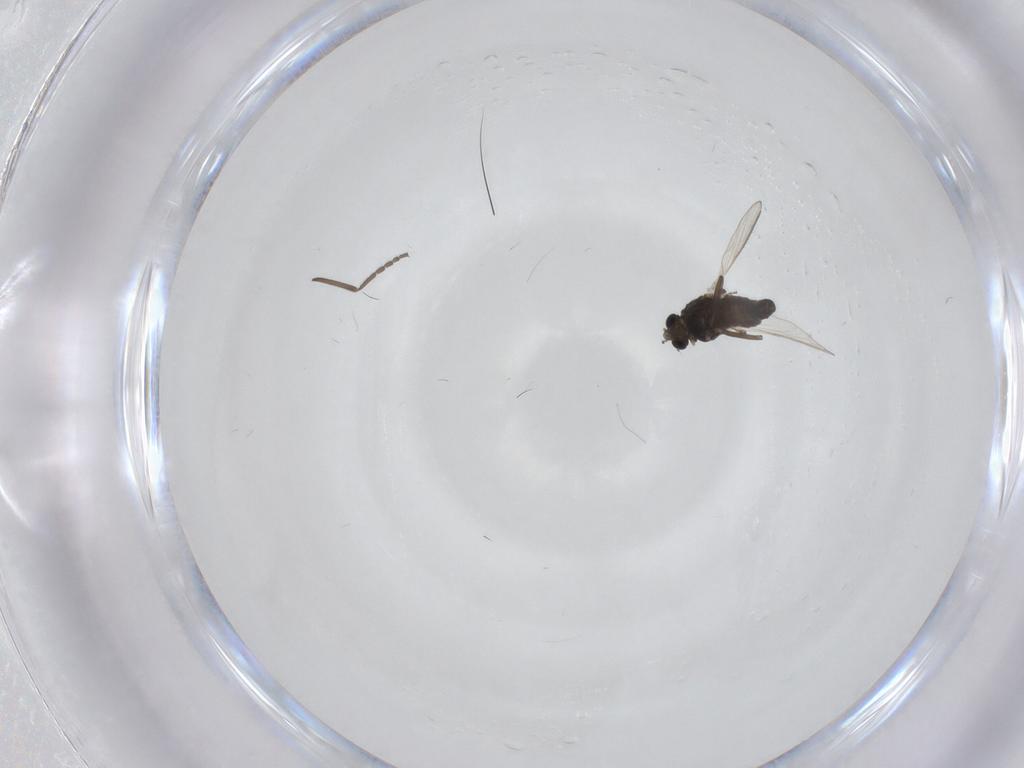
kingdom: Animalia
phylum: Arthropoda
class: Insecta
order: Diptera
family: Chironomidae
